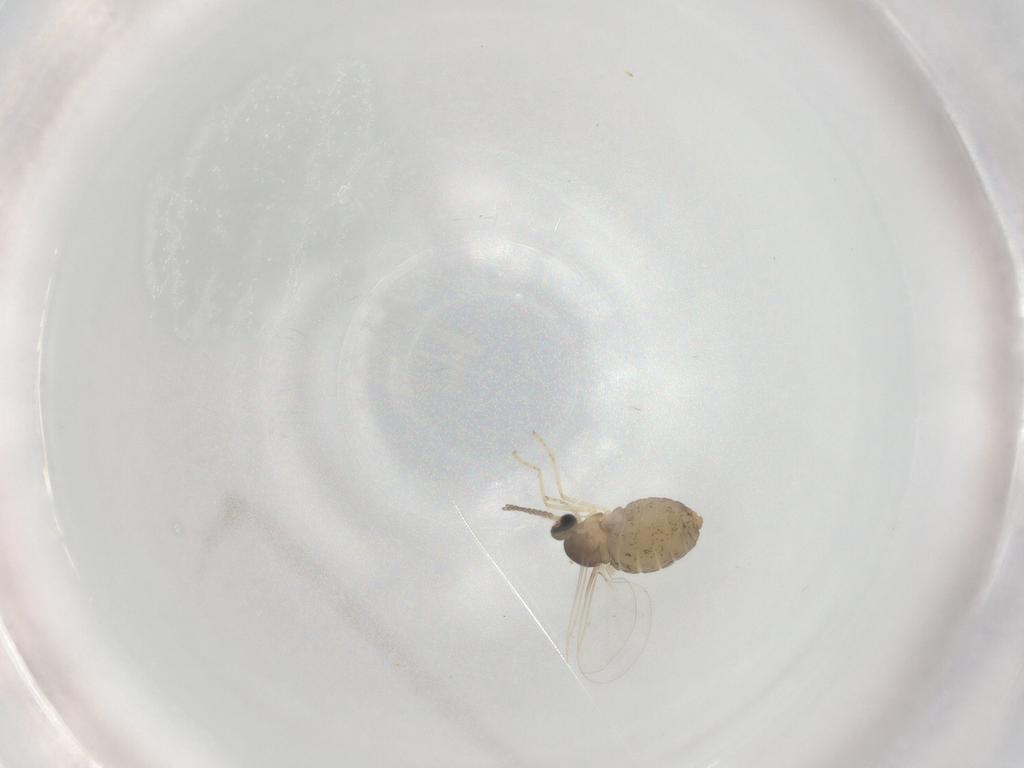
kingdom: Animalia
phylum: Arthropoda
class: Insecta
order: Diptera
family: Cecidomyiidae
